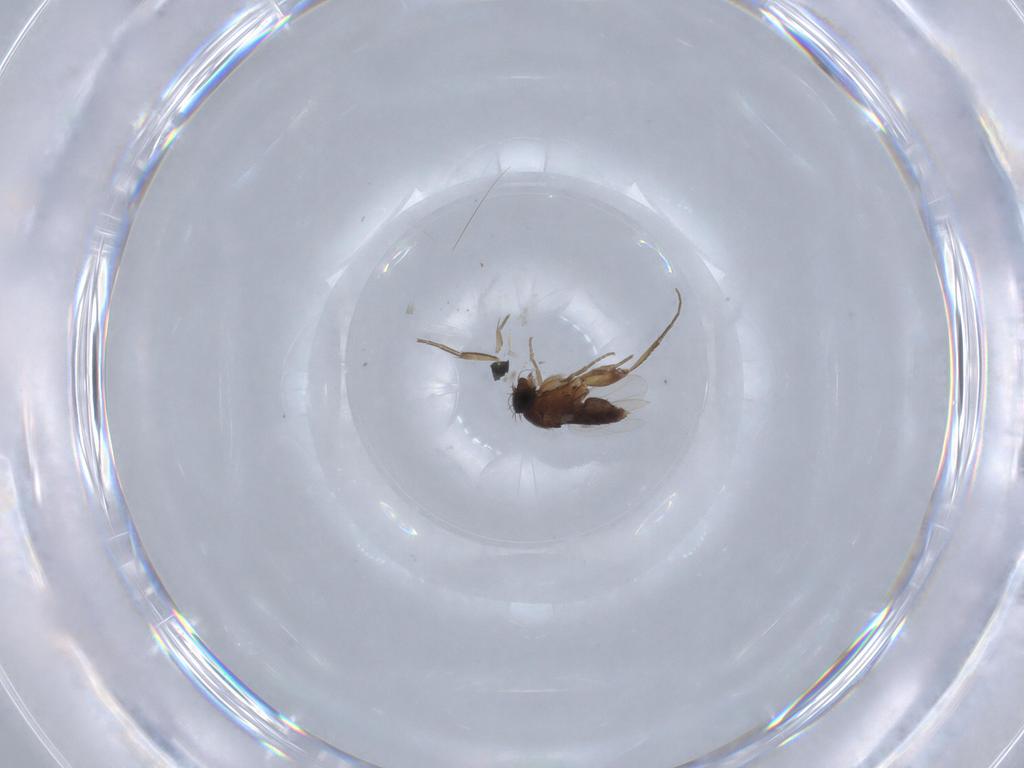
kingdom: Animalia
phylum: Arthropoda
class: Insecta
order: Diptera
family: Phoridae
